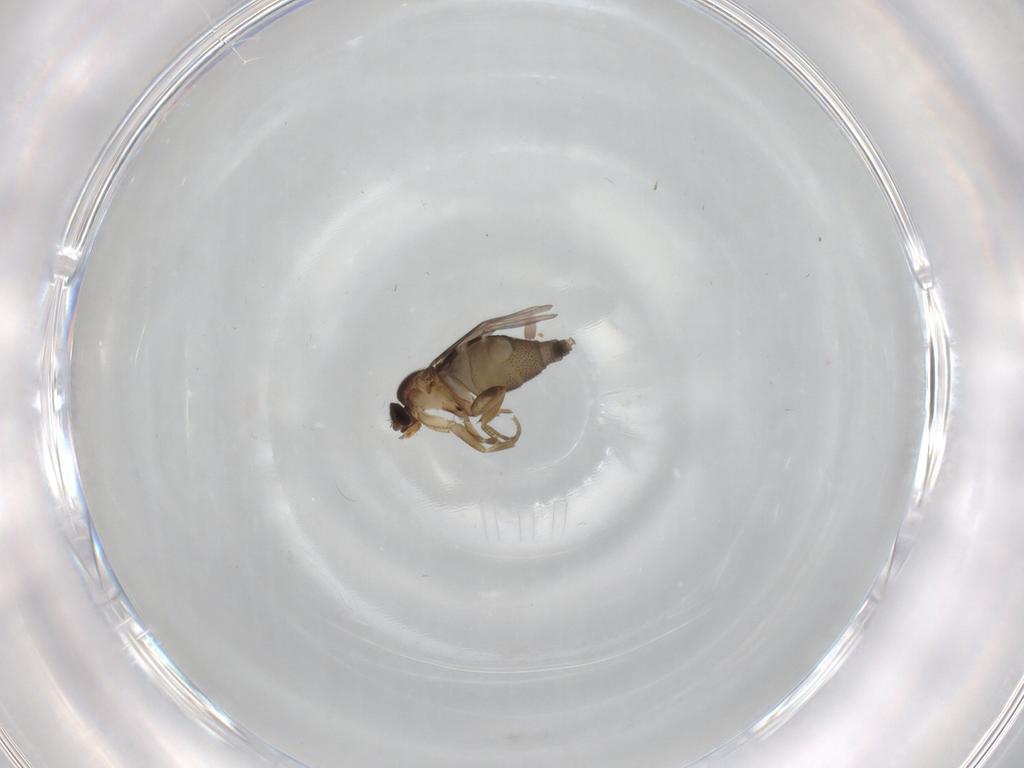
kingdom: Animalia
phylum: Arthropoda
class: Insecta
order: Diptera
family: Phoridae
